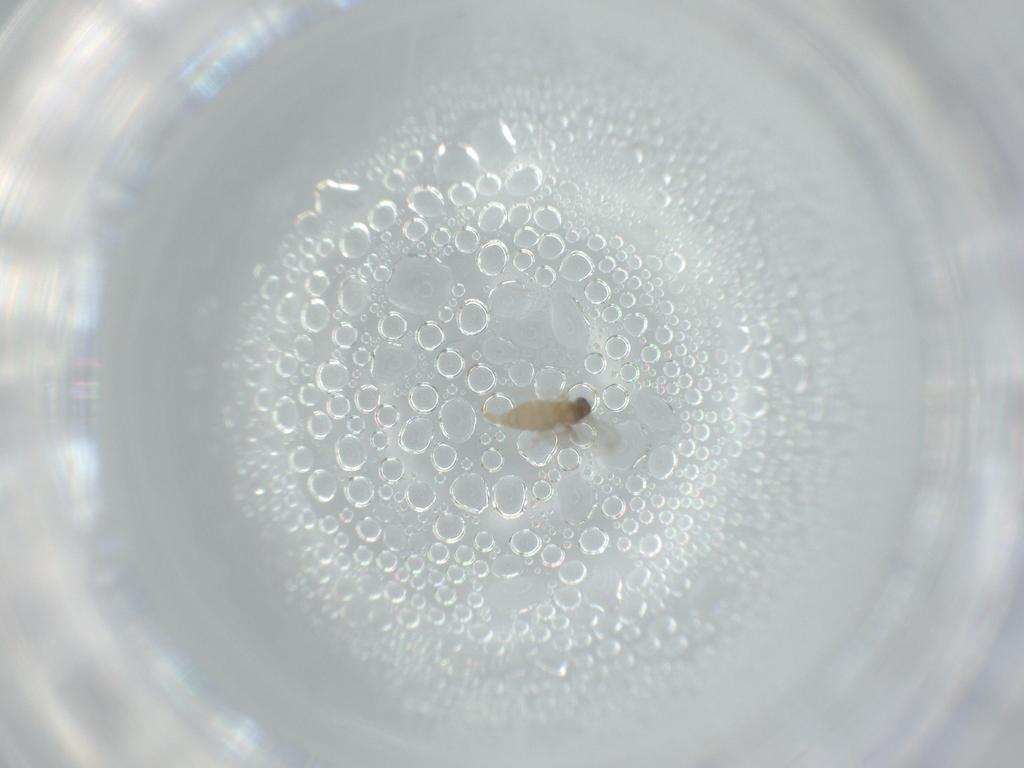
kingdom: Animalia
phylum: Arthropoda
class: Insecta
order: Diptera
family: Cecidomyiidae
